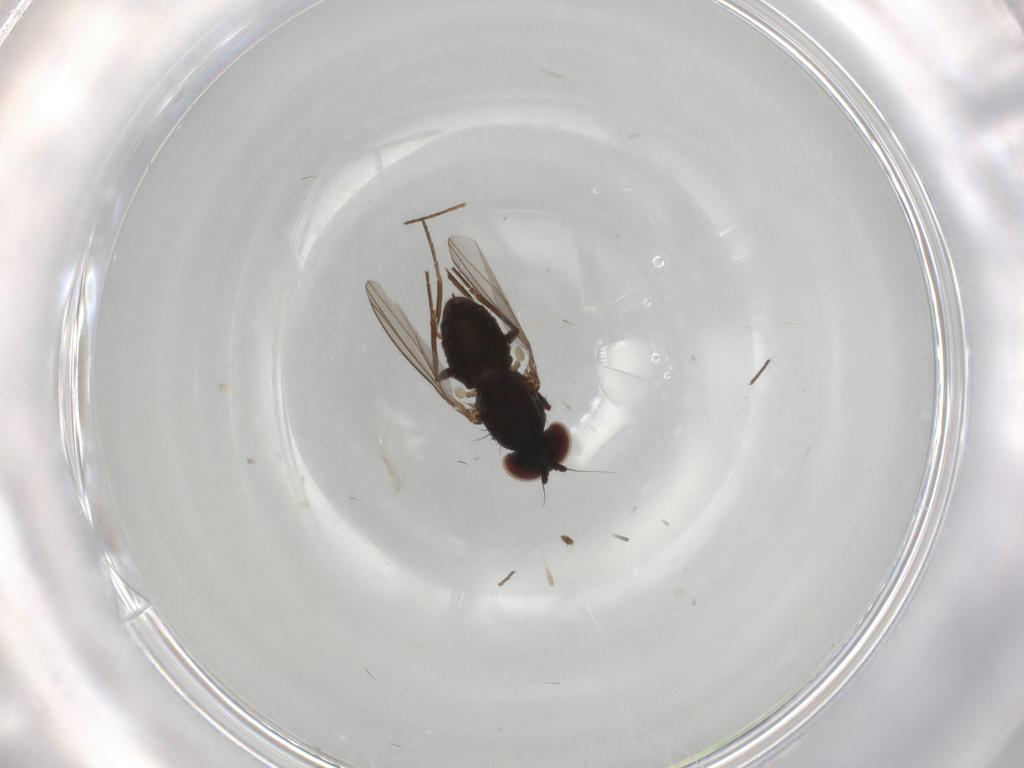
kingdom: Animalia
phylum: Arthropoda
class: Insecta
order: Diptera
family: Dolichopodidae
